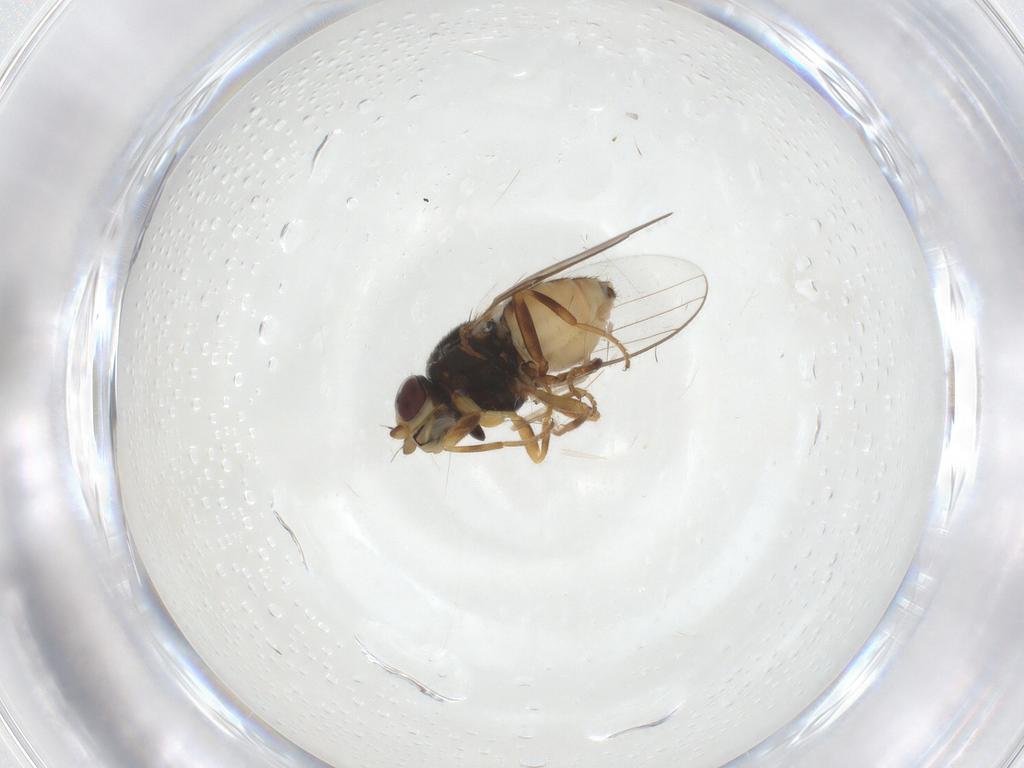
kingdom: Animalia
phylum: Arthropoda
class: Insecta
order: Diptera
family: Chloropidae
